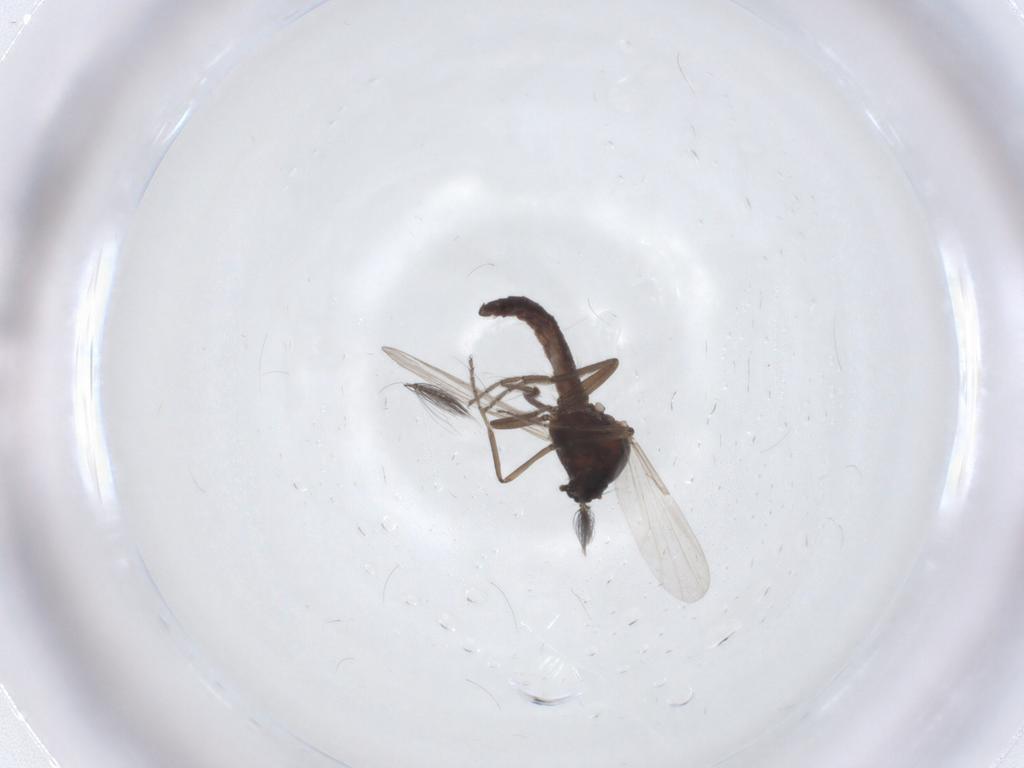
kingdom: Animalia
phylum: Arthropoda
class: Insecta
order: Diptera
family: Ceratopogonidae
